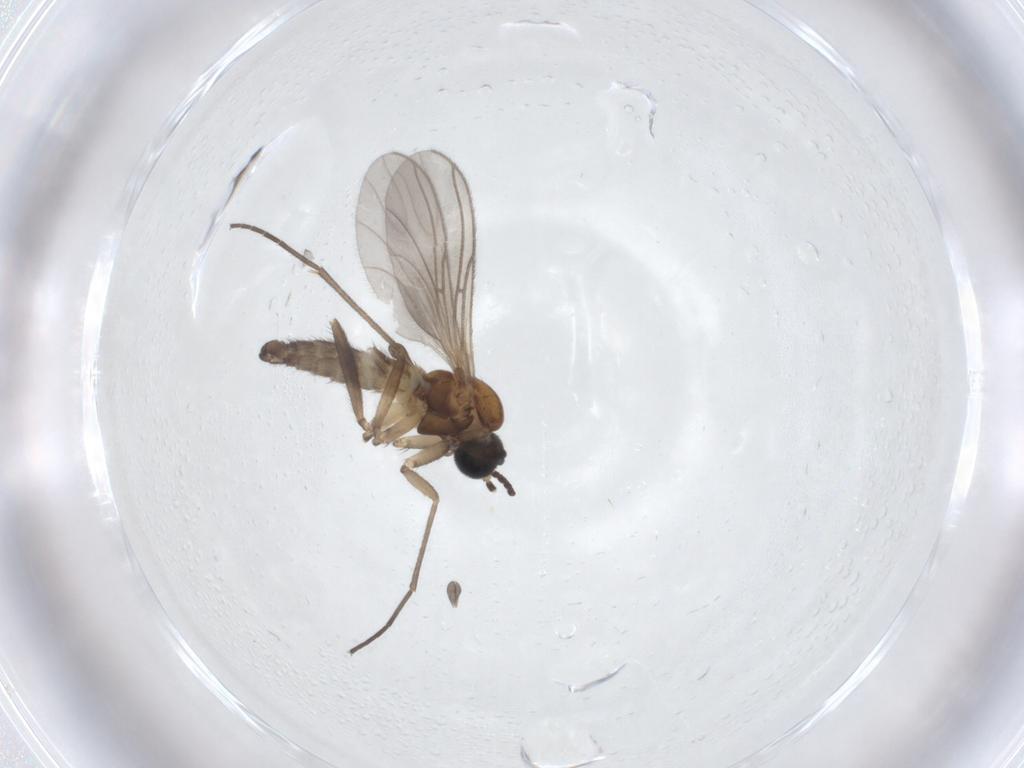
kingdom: Animalia
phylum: Arthropoda
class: Insecta
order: Diptera
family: Sciaridae
